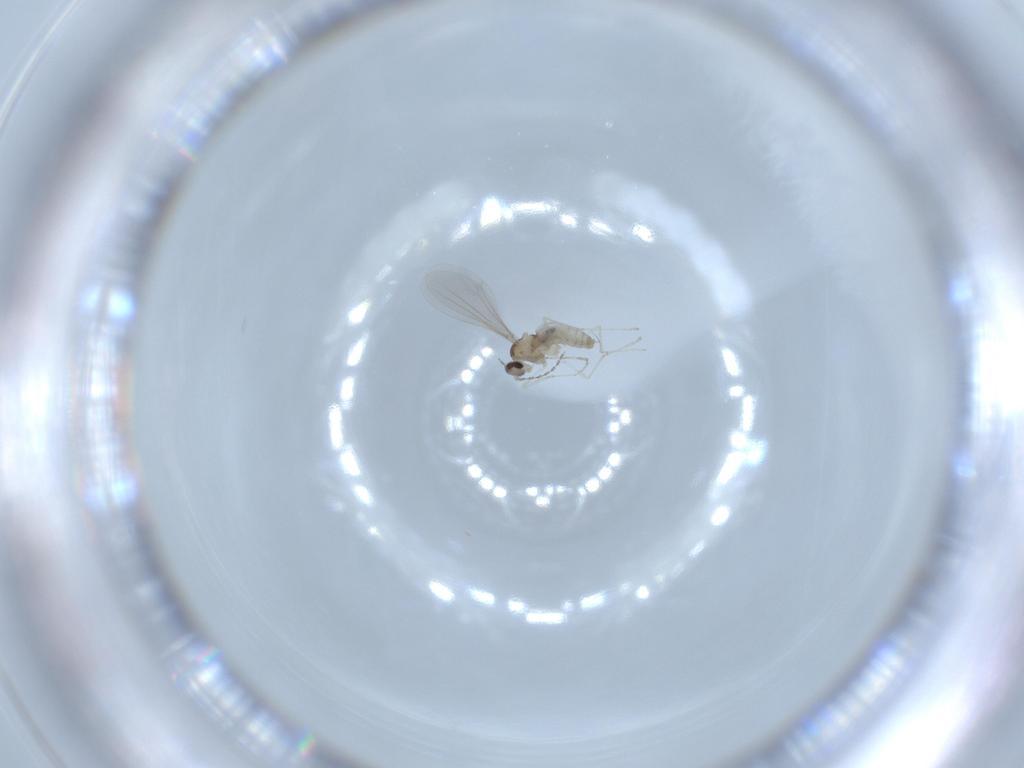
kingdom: Animalia
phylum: Arthropoda
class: Insecta
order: Diptera
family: Cecidomyiidae
